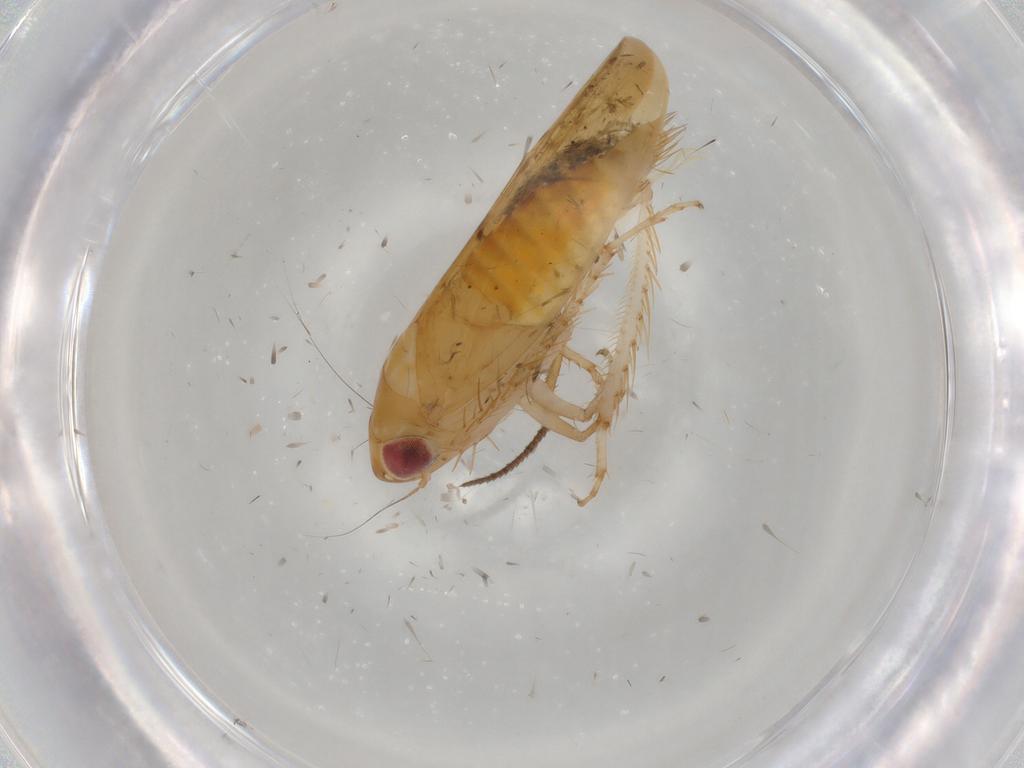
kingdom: Animalia
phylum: Arthropoda
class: Insecta
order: Hemiptera
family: Cicadellidae
